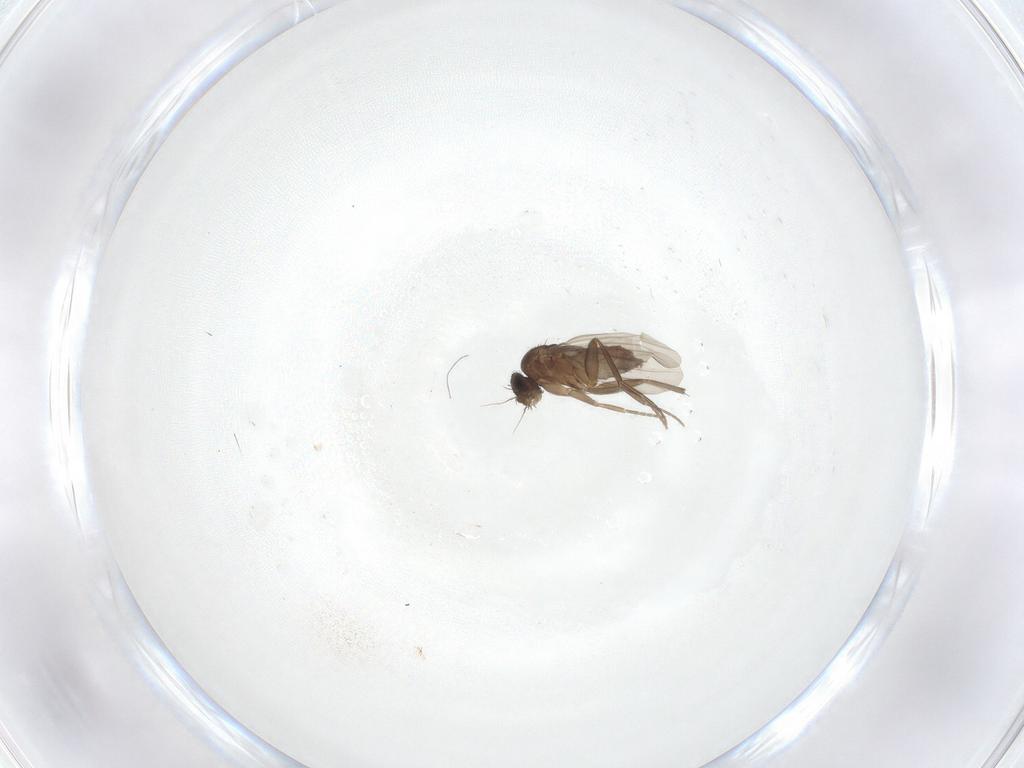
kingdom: Animalia
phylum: Arthropoda
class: Insecta
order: Diptera
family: Phoridae
